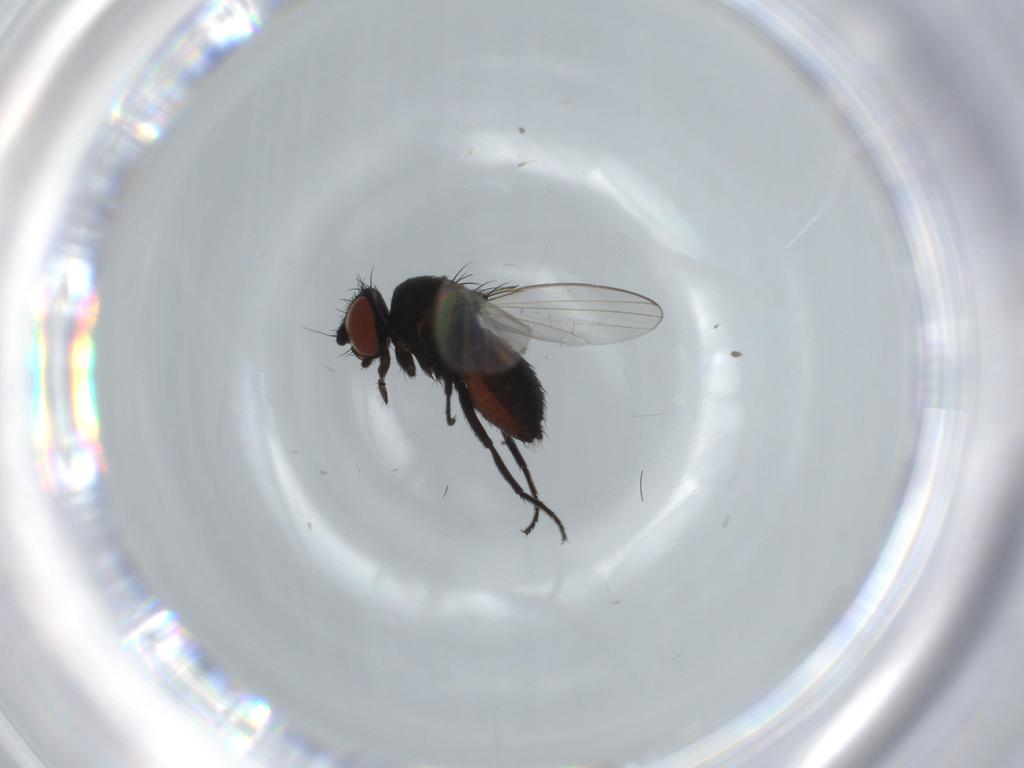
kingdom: Animalia
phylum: Arthropoda
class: Insecta
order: Diptera
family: Milichiidae
